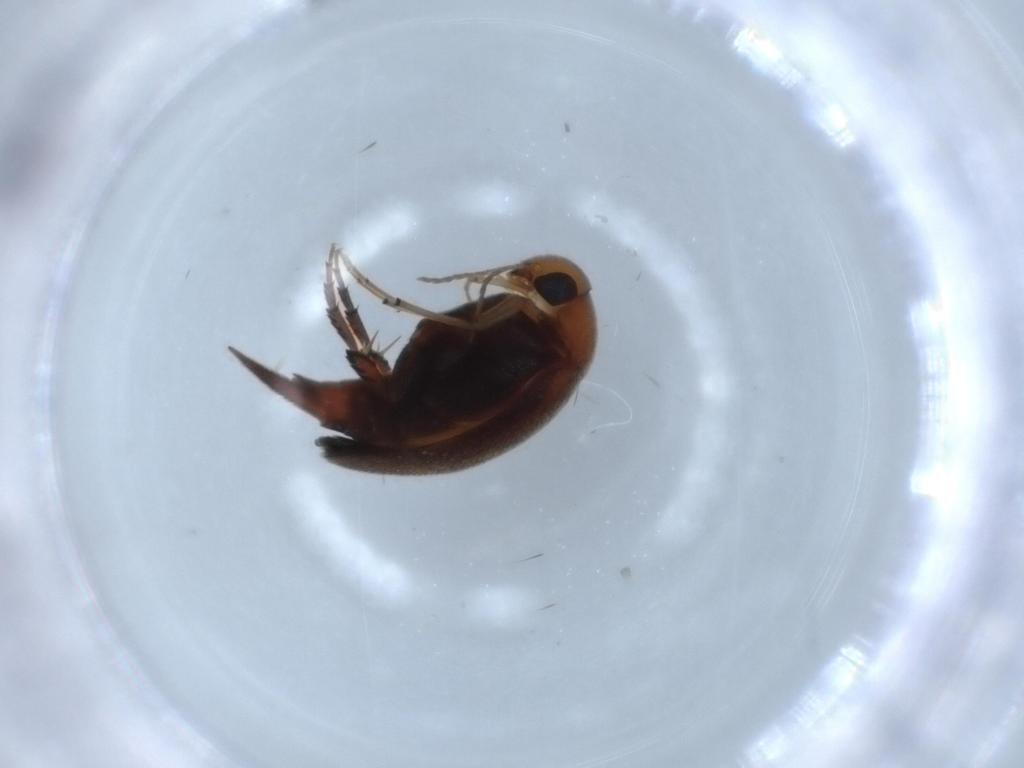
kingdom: Animalia
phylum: Arthropoda
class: Insecta
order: Coleoptera
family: Mordellidae
